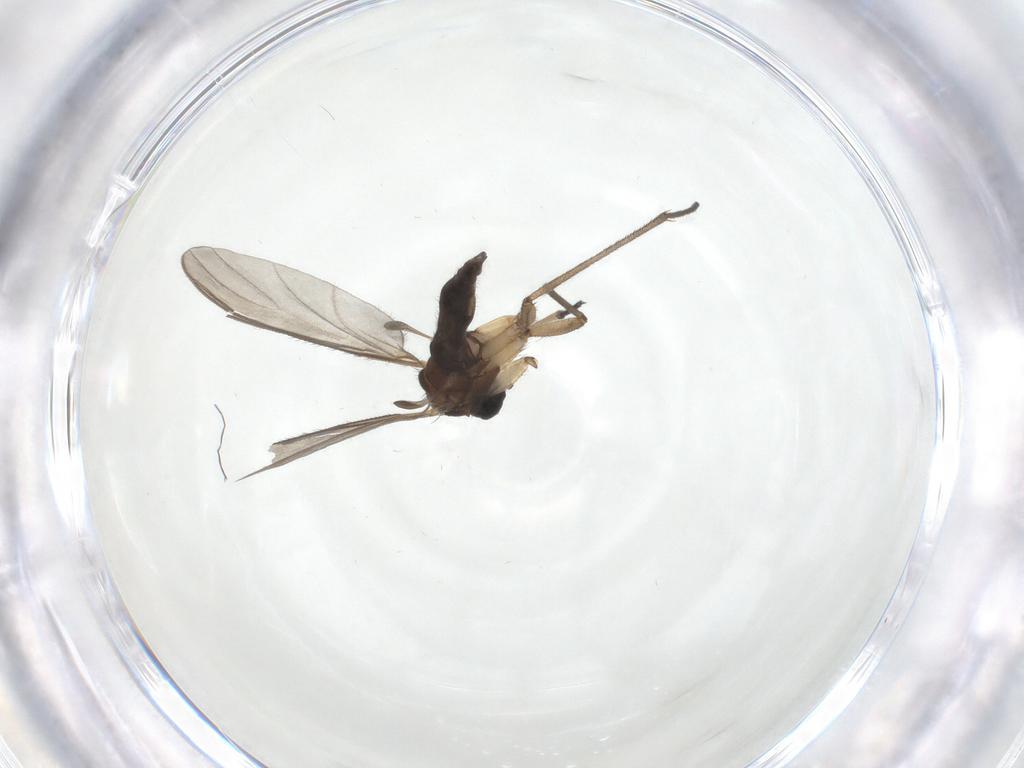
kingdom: Animalia
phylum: Arthropoda
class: Insecta
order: Diptera
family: Sciaridae
